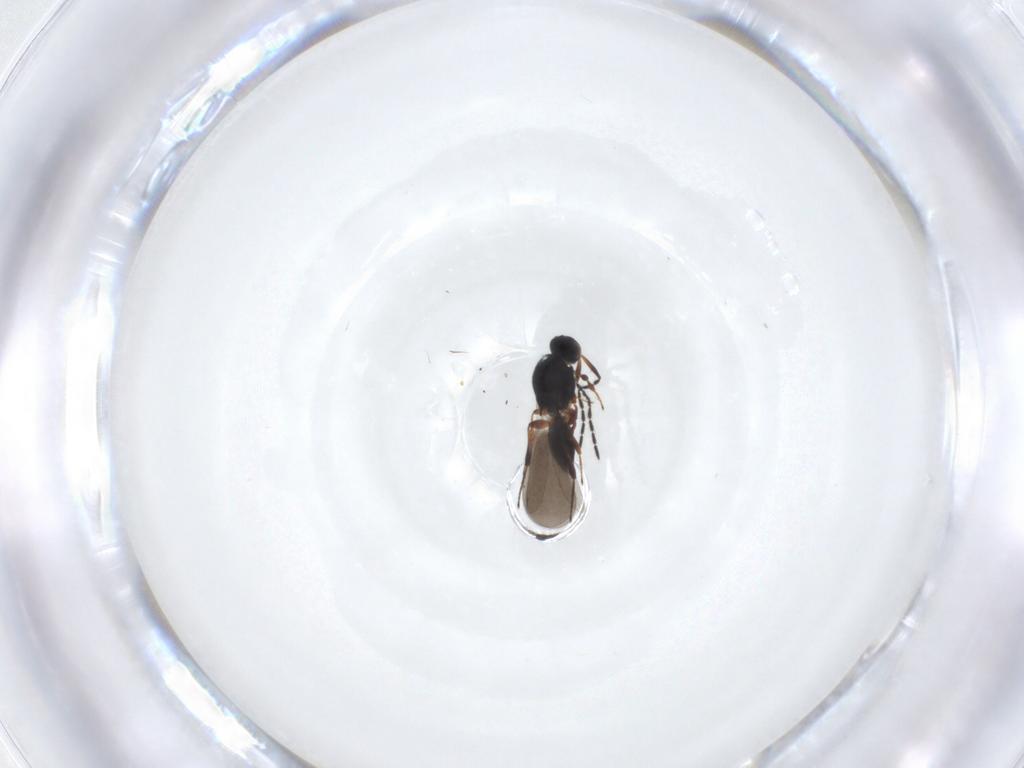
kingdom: Animalia
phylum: Arthropoda
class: Insecta
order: Hymenoptera
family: Platygastridae
